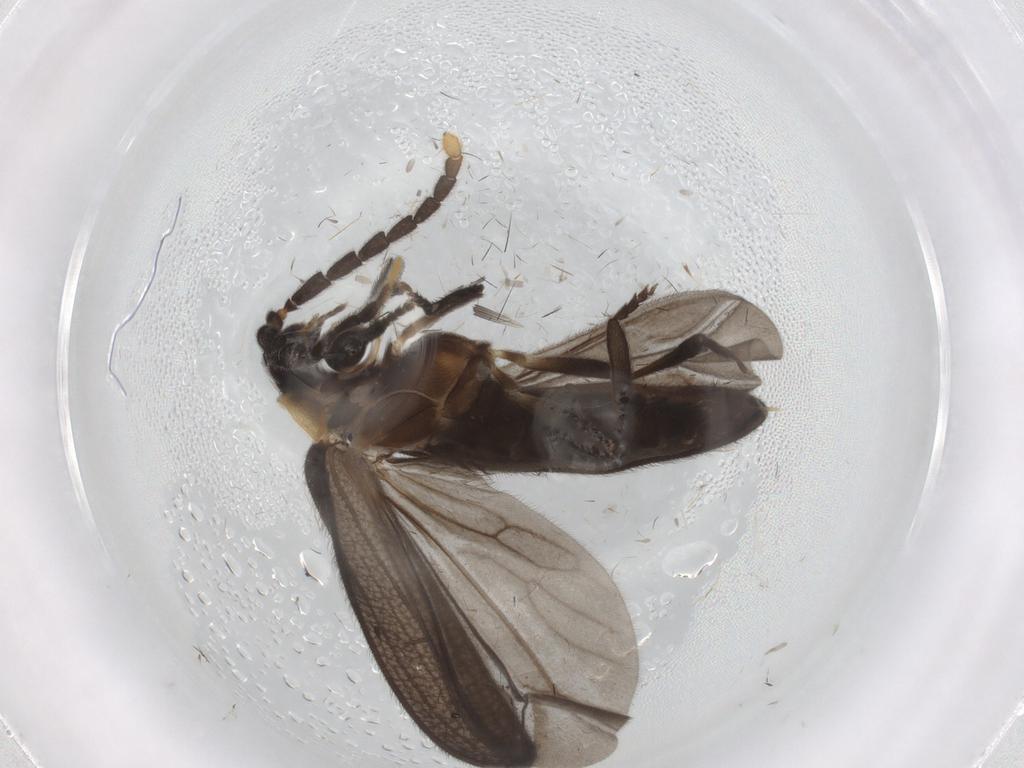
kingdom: Animalia
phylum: Arthropoda
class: Insecta
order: Coleoptera
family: Lycidae
